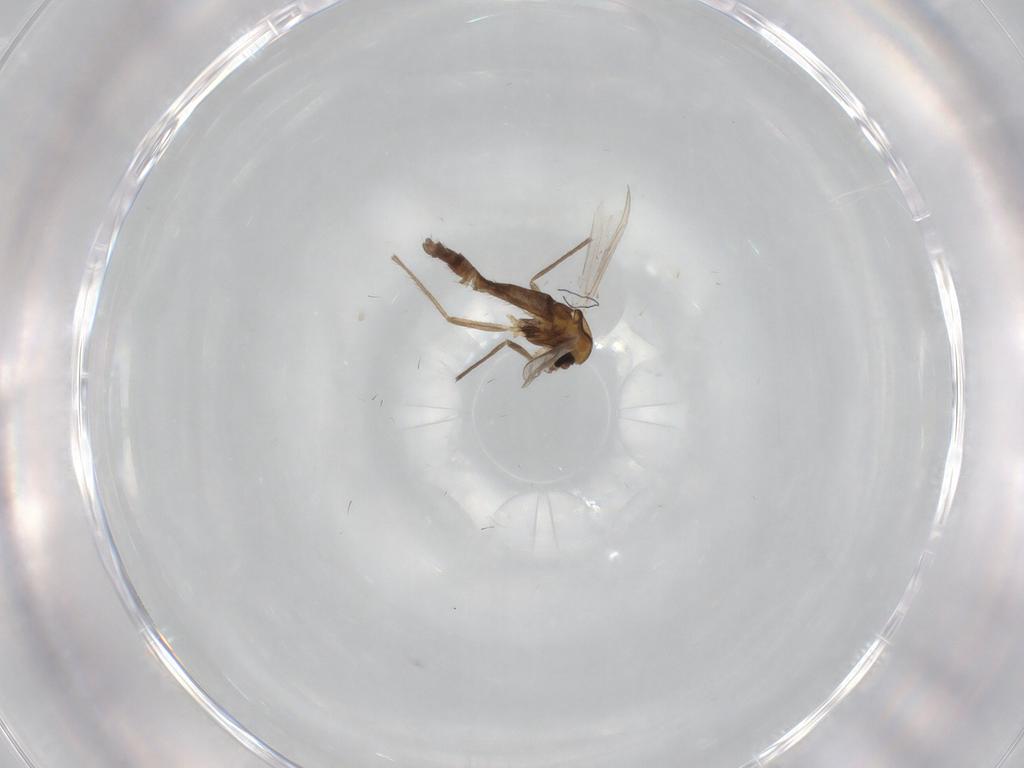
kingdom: Animalia
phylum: Arthropoda
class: Insecta
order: Diptera
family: Chironomidae
